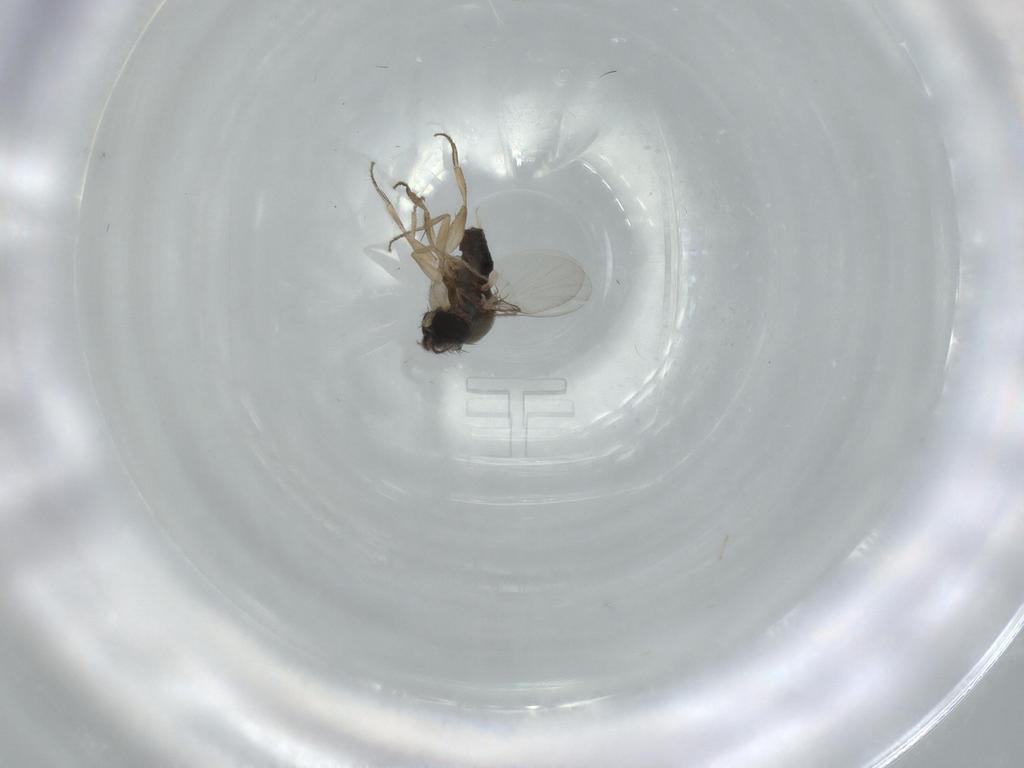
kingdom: Animalia
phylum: Arthropoda
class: Insecta
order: Diptera
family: Phoridae
